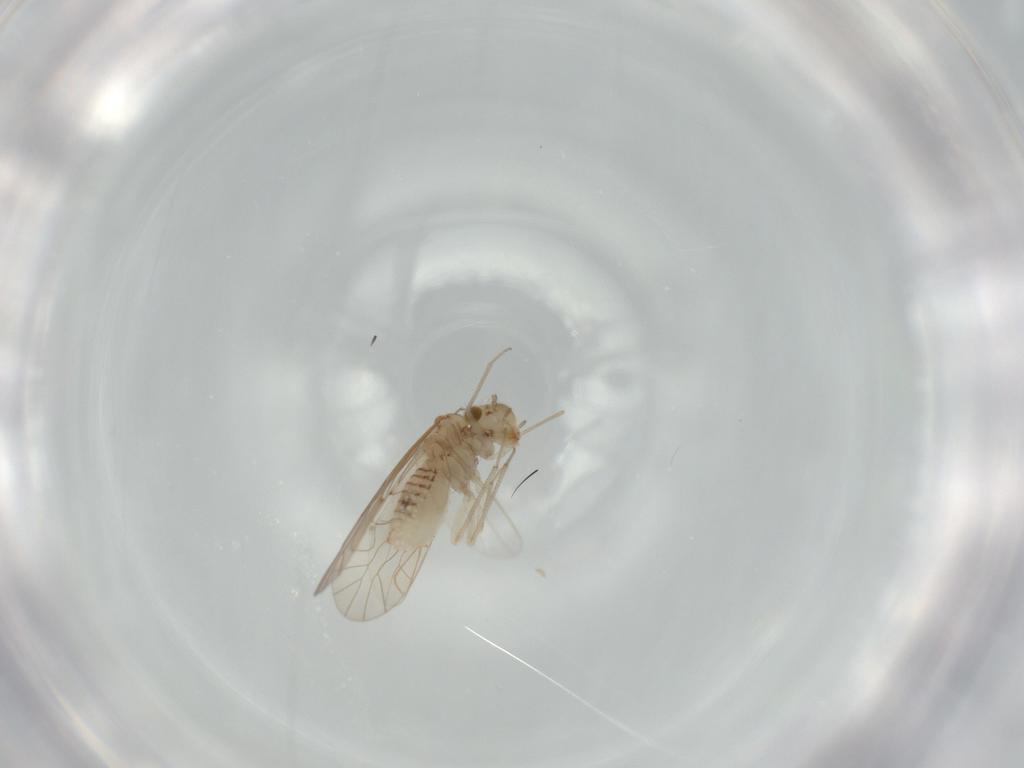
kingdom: Animalia
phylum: Arthropoda
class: Insecta
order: Psocodea
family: Lachesillidae
